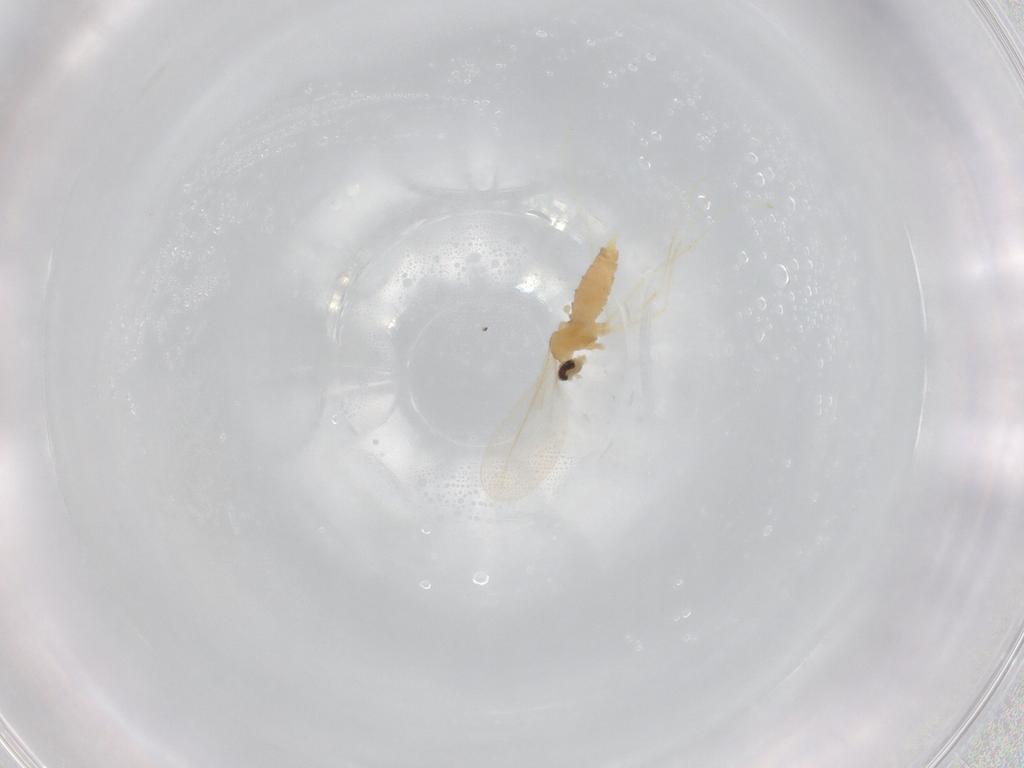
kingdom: Animalia
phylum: Arthropoda
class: Insecta
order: Diptera
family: Cecidomyiidae
